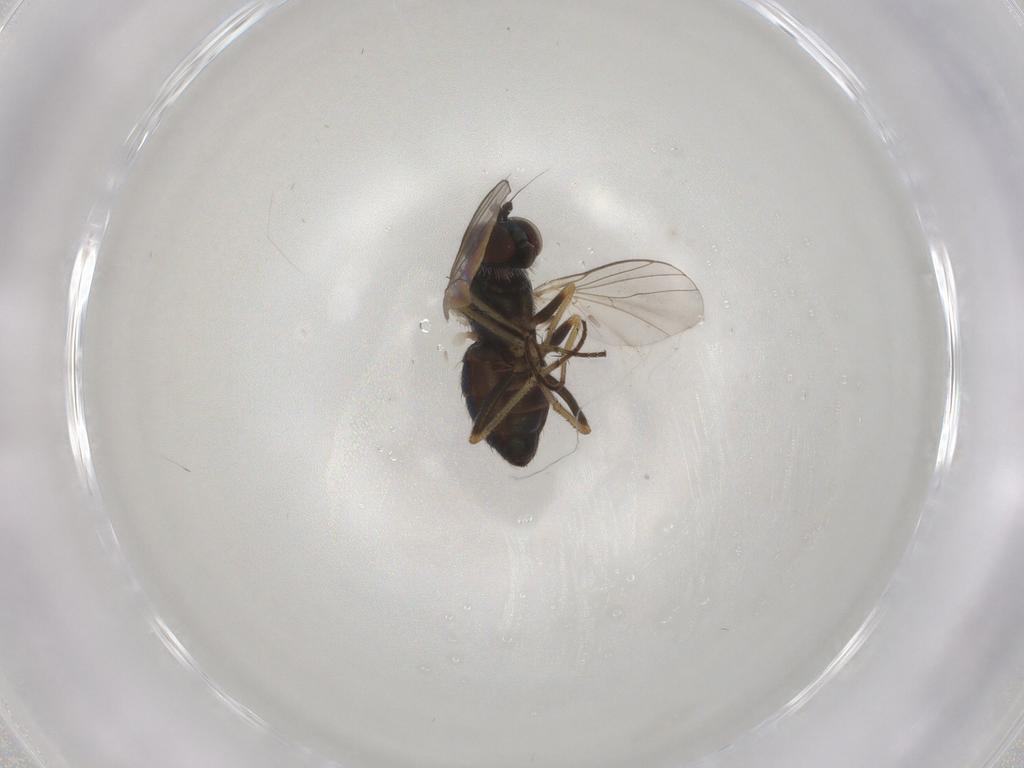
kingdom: Animalia
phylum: Arthropoda
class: Insecta
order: Diptera
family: Dolichopodidae
